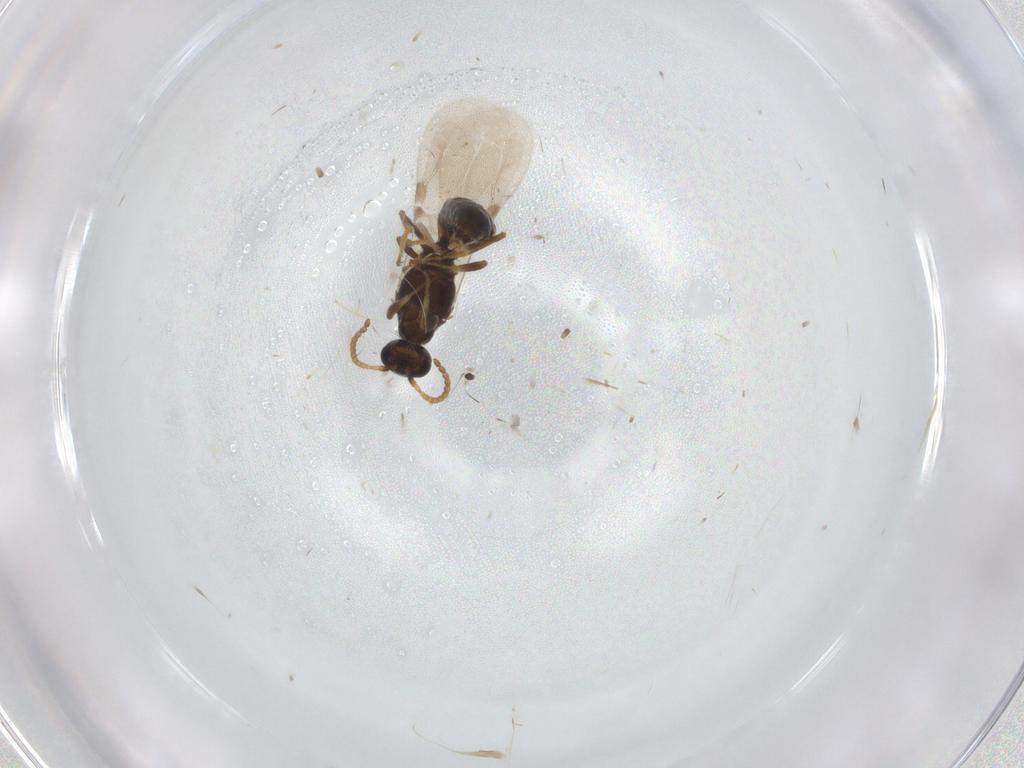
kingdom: Animalia
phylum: Arthropoda
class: Insecta
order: Hymenoptera
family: Bethylidae
